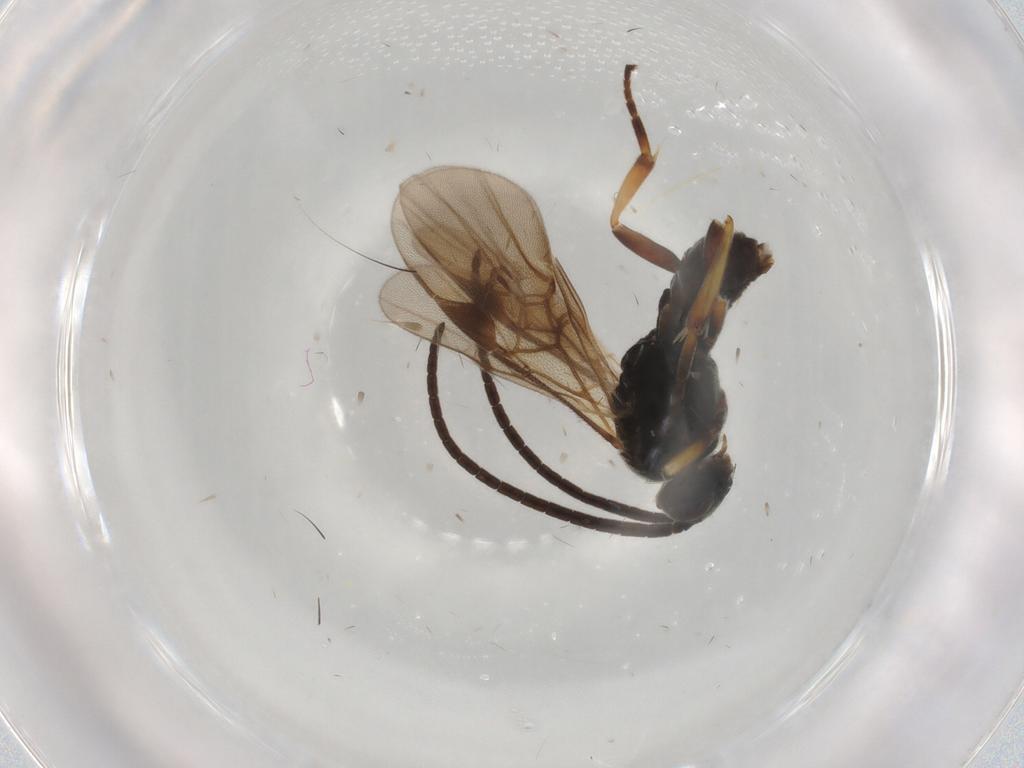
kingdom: Animalia
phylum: Arthropoda
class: Insecta
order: Hymenoptera
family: Braconidae
